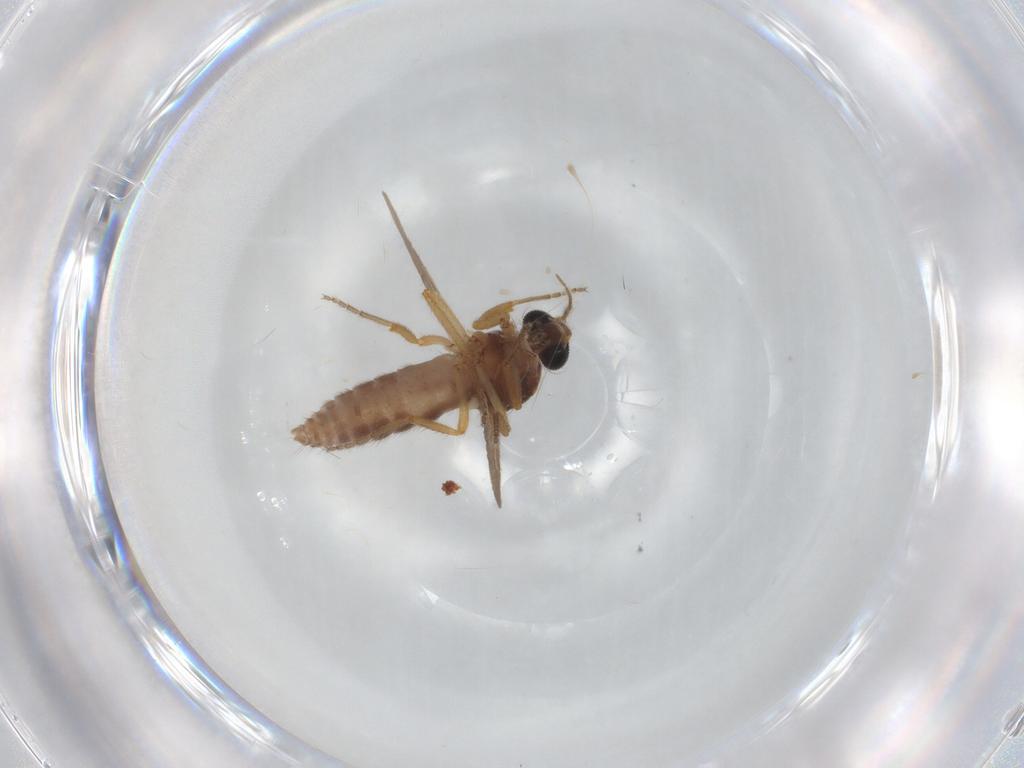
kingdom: Animalia
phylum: Arthropoda
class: Insecta
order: Diptera
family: Ceratopogonidae
